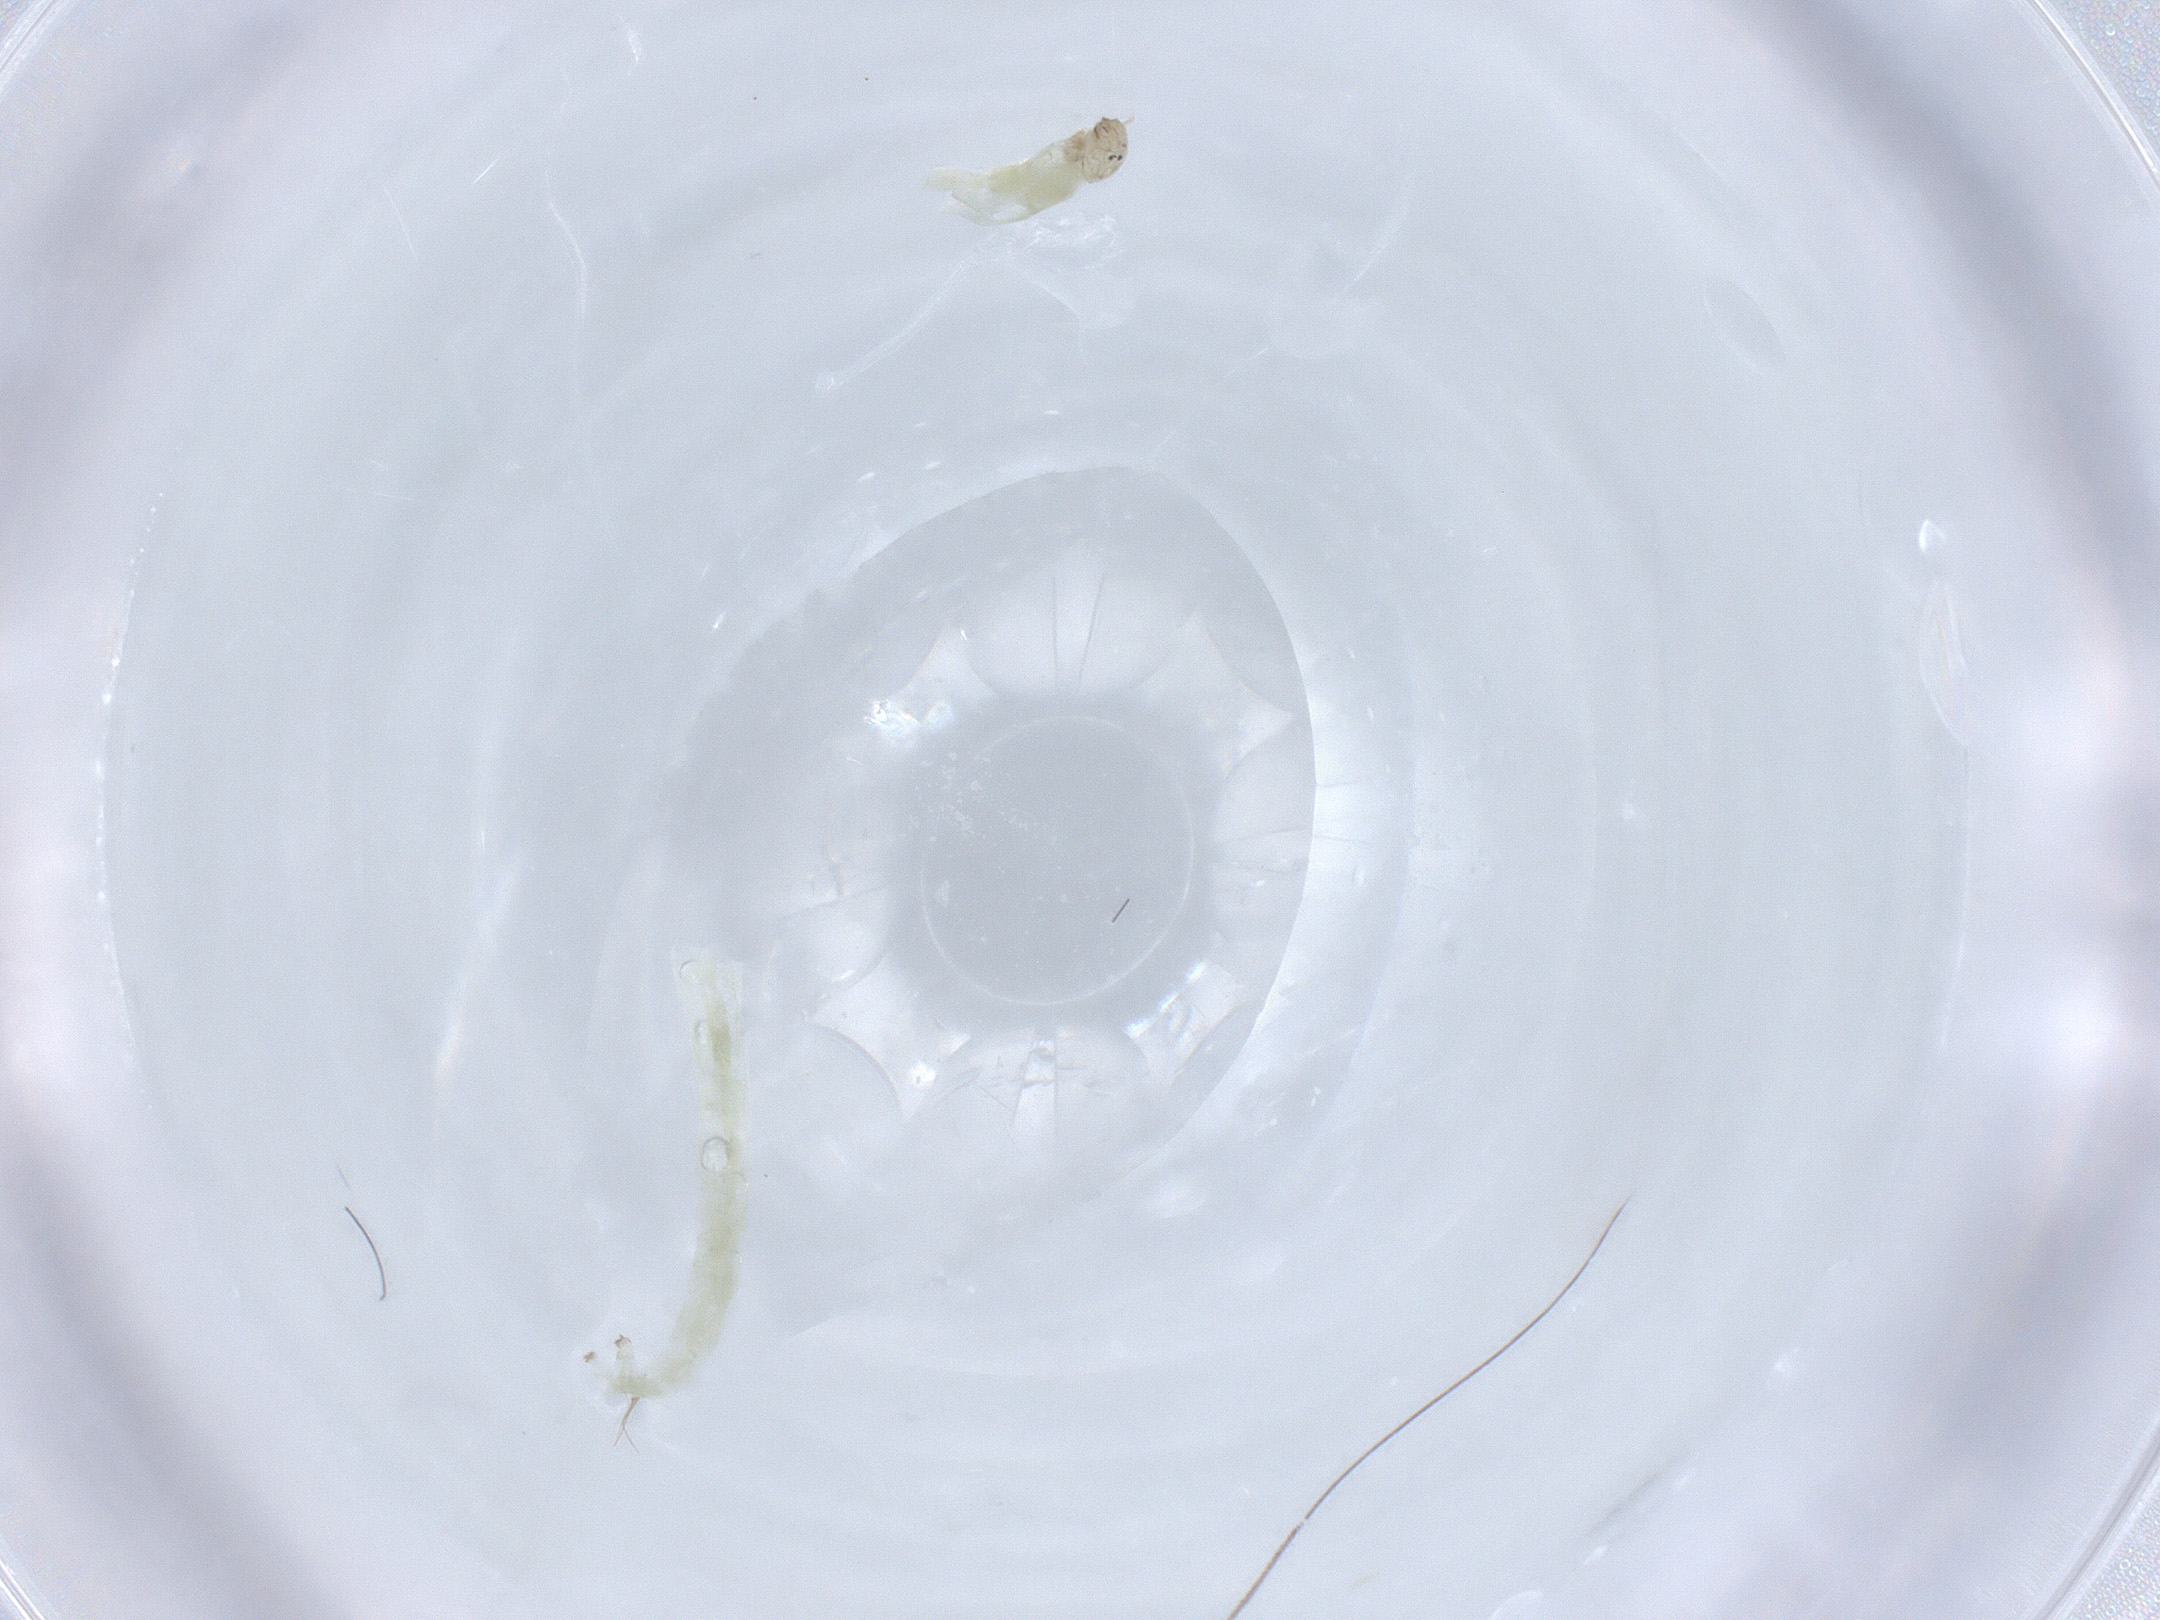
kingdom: Animalia
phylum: Arthropoda
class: Insecta
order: Diptera
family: Chironomidae
